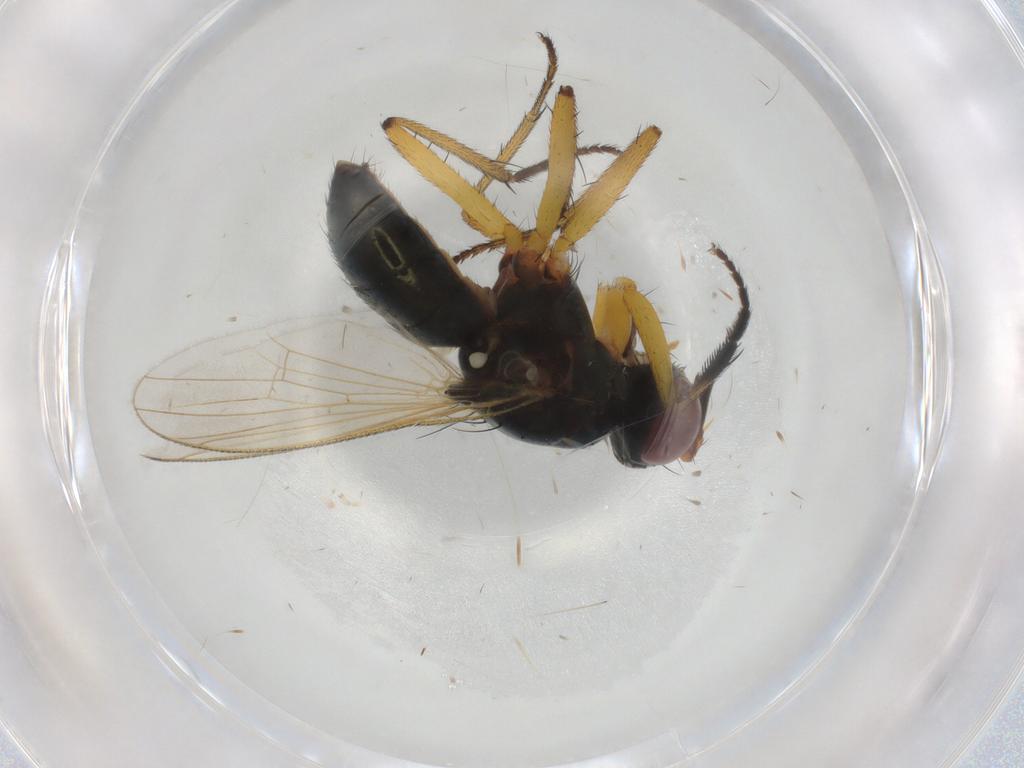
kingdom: Animalia
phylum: Arthropoda
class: Insecta
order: Diptera
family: Muscidae
